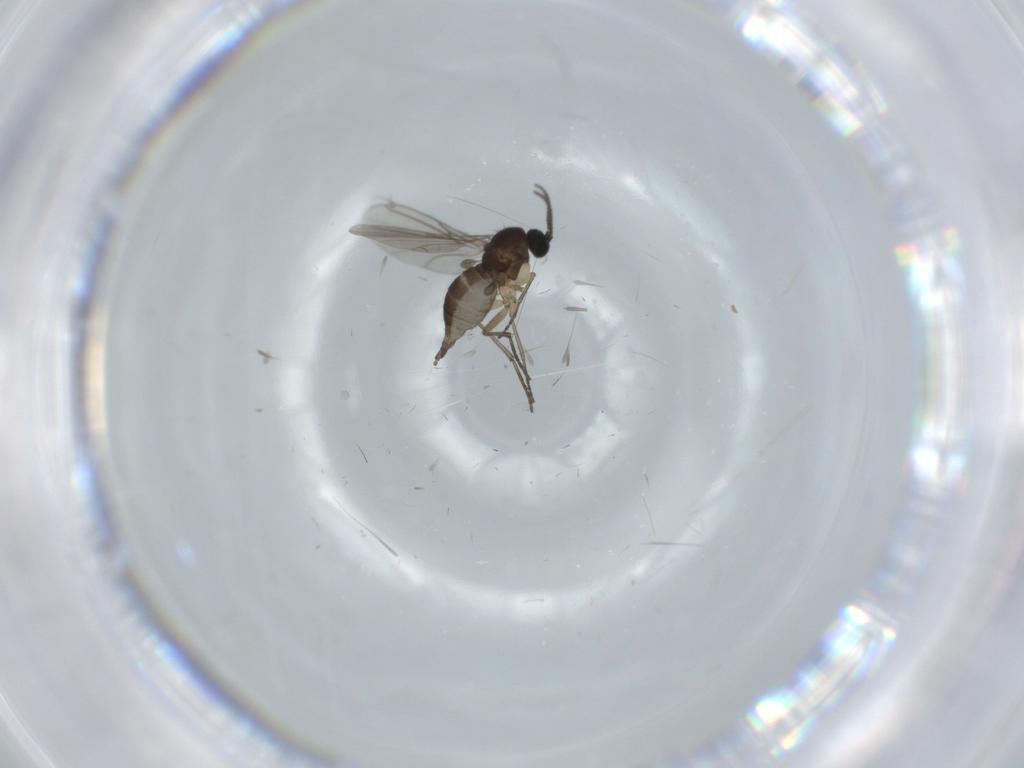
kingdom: Animalia
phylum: Arthropoda
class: Insecta
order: Diptera
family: Sciaridae
